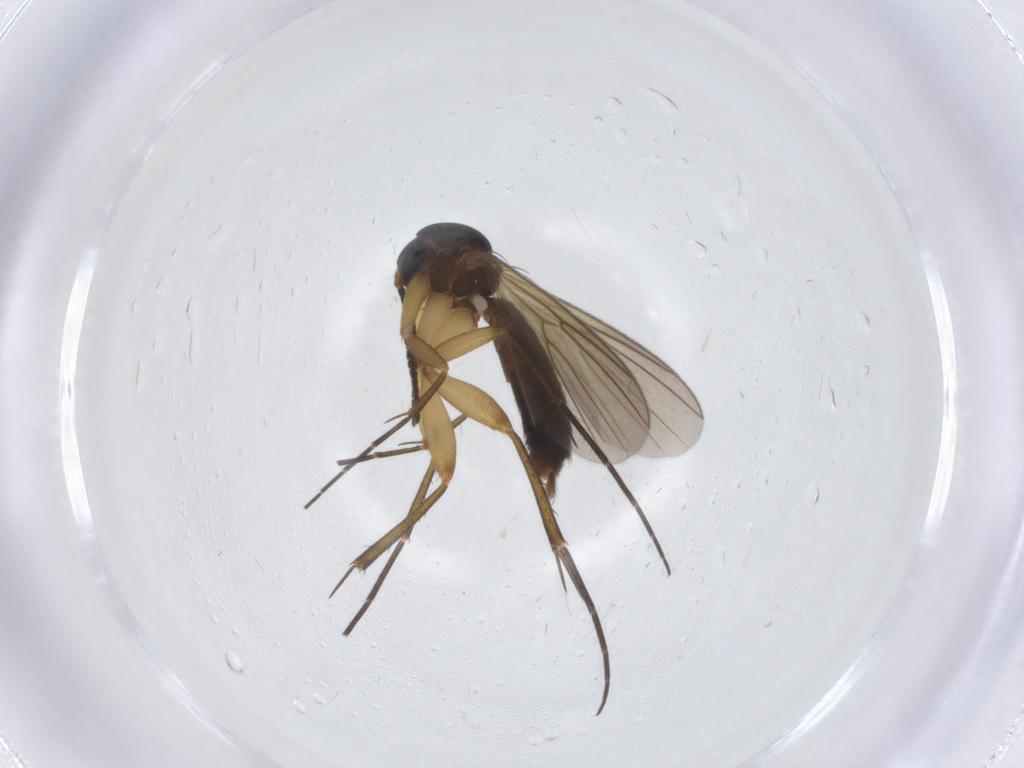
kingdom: Animalia
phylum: Arthropoda
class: Insecta
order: Diptera
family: Mycetophilidae
